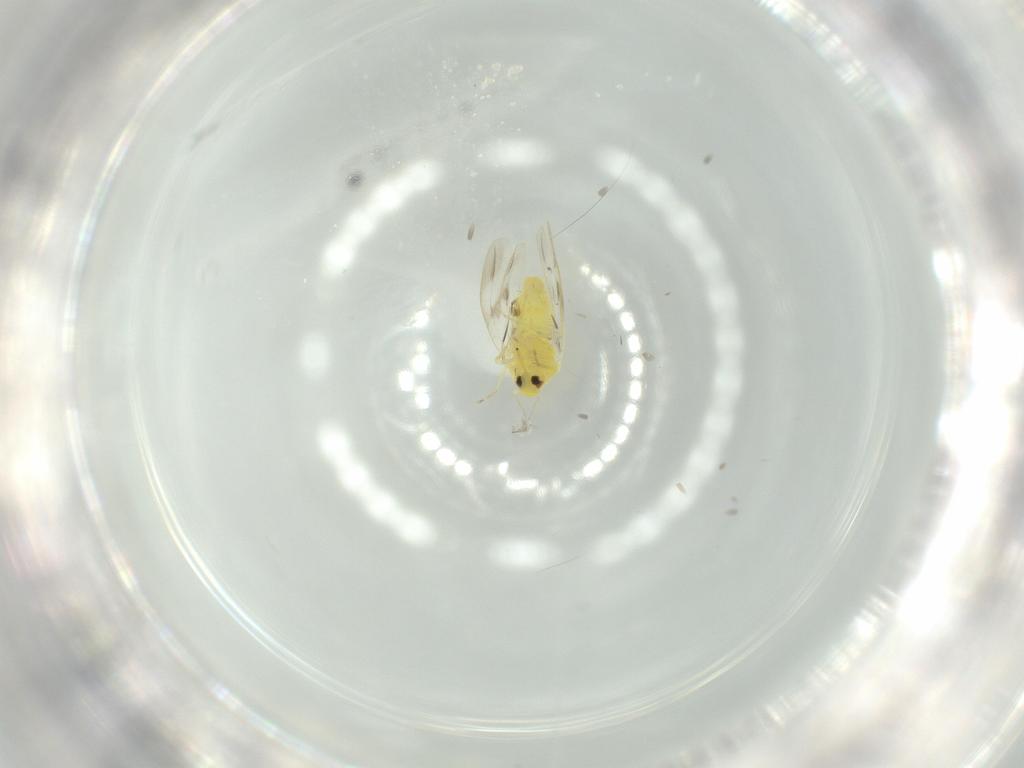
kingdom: Animalia
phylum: Arthropoda
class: Insecta
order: Hemiptera
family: Aleyrodidae
